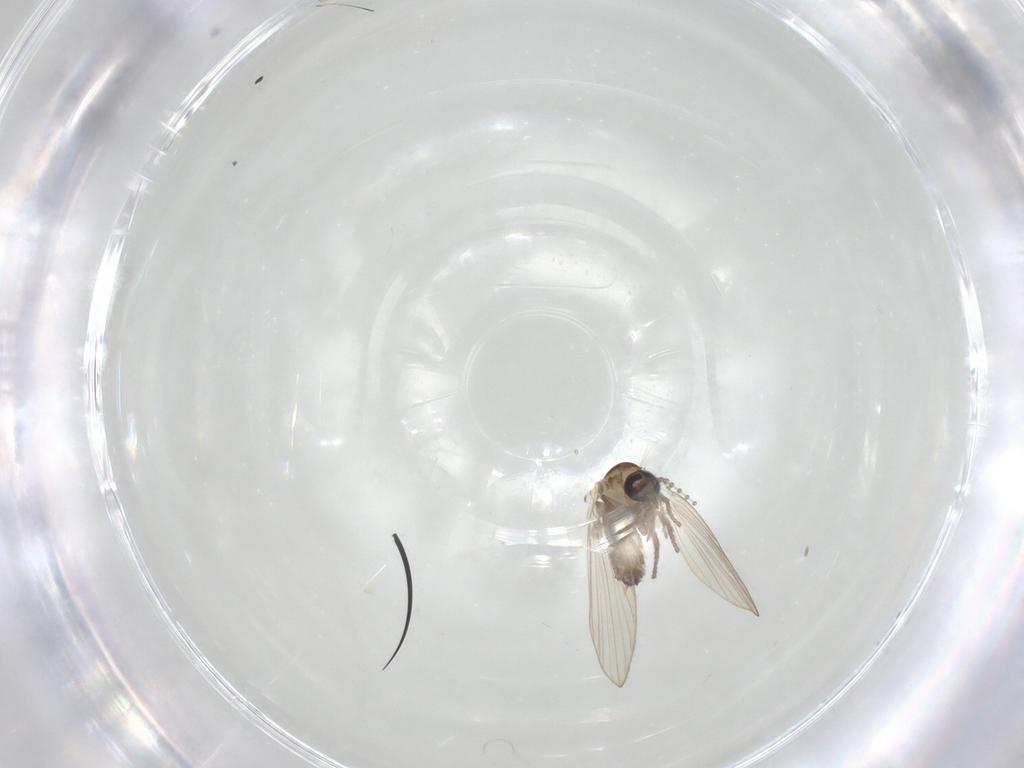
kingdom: Animalia
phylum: Arthropoda
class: Insecta
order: Diptera
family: Psychodidae
